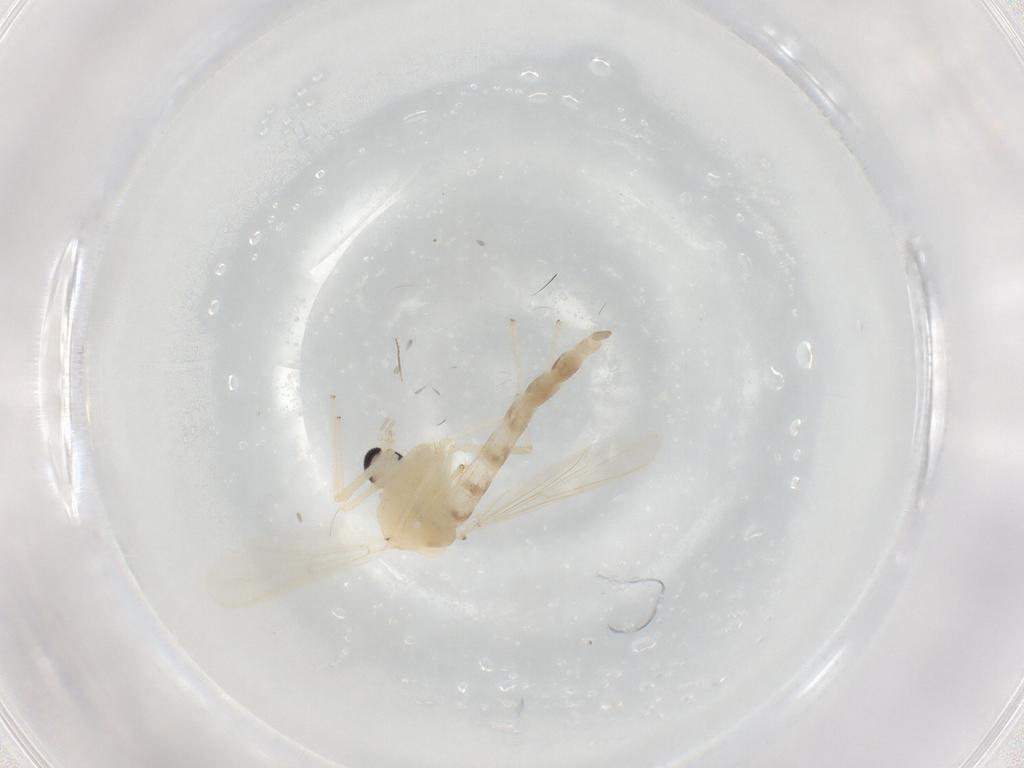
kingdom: Animalia
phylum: Arthropoda
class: Insecta
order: Diptera
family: Chironomidae
